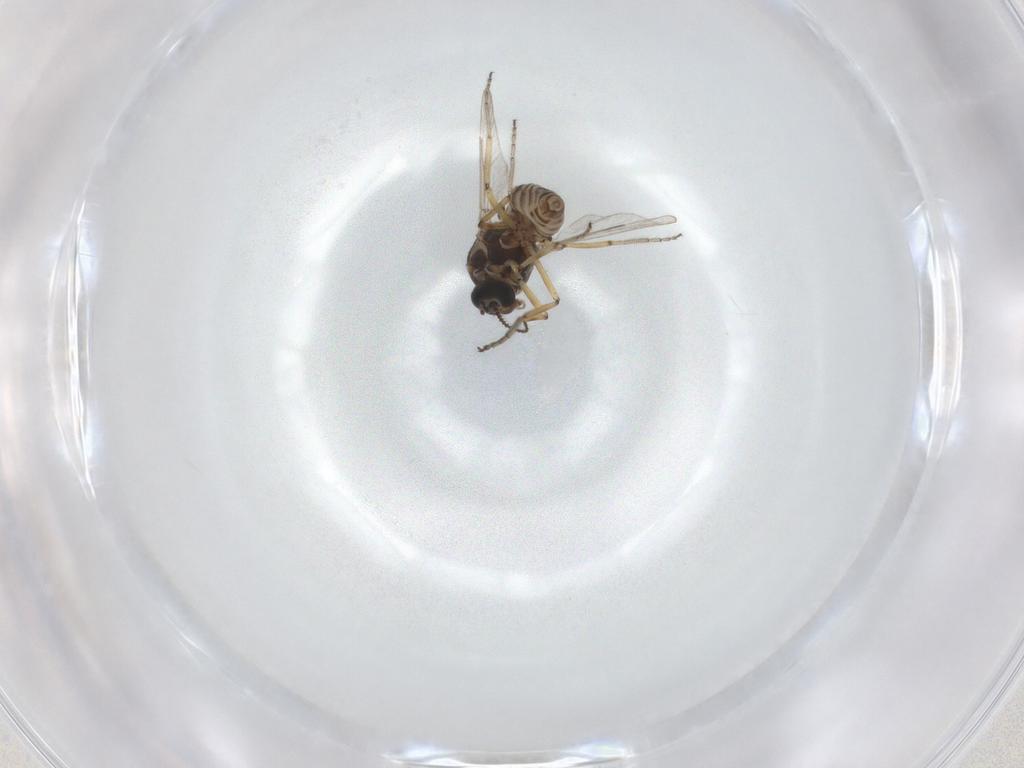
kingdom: Animalia
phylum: Arthropoda
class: Insecta
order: Diptera
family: Ceratopogonidae
